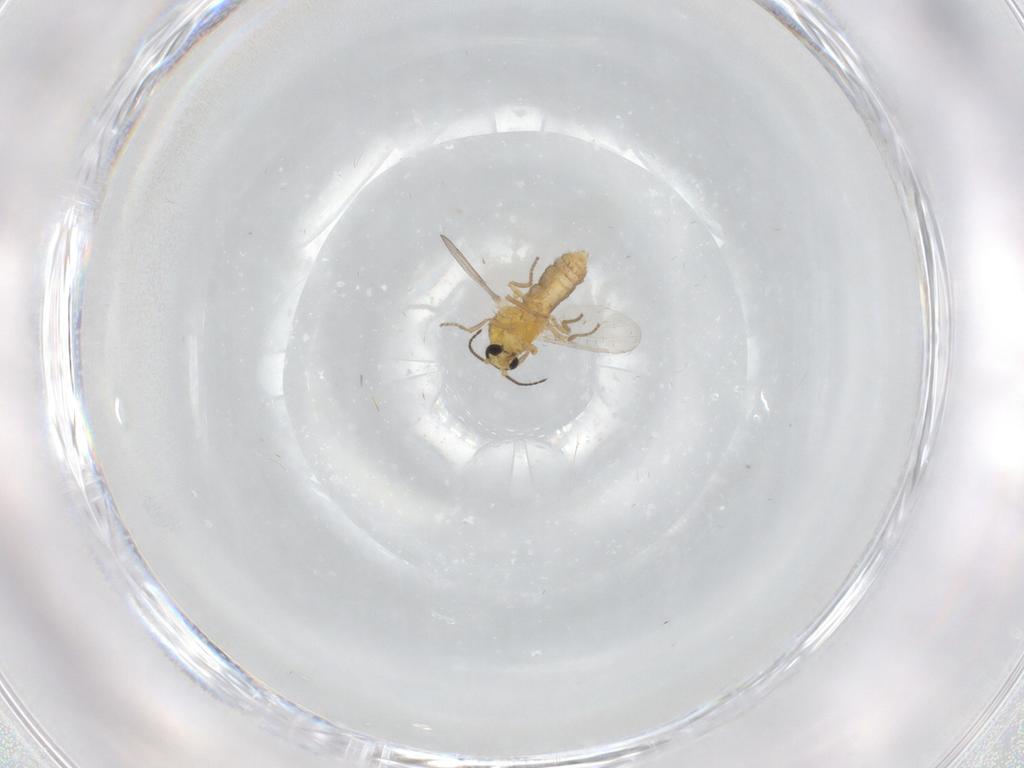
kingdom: Animalia
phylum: Arthropoda
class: Insecta
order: Diptera
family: Ceratopogonidae
